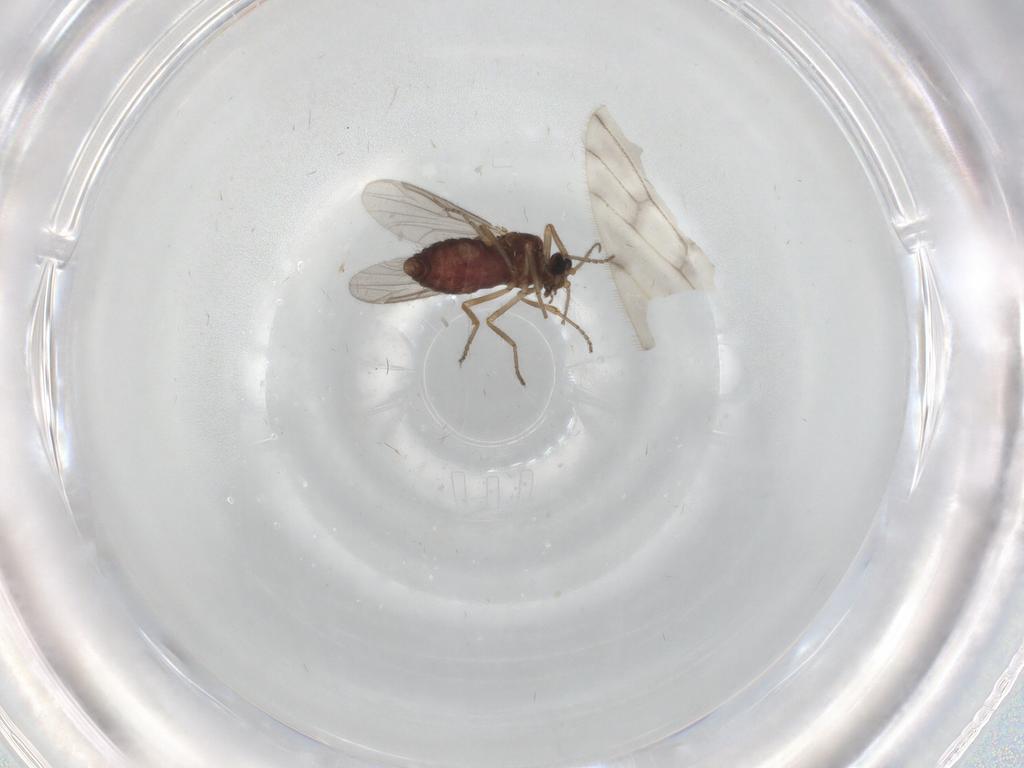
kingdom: Animalia
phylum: Arthropoda
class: Insecta
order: Diptera
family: Ceratopogonidae
